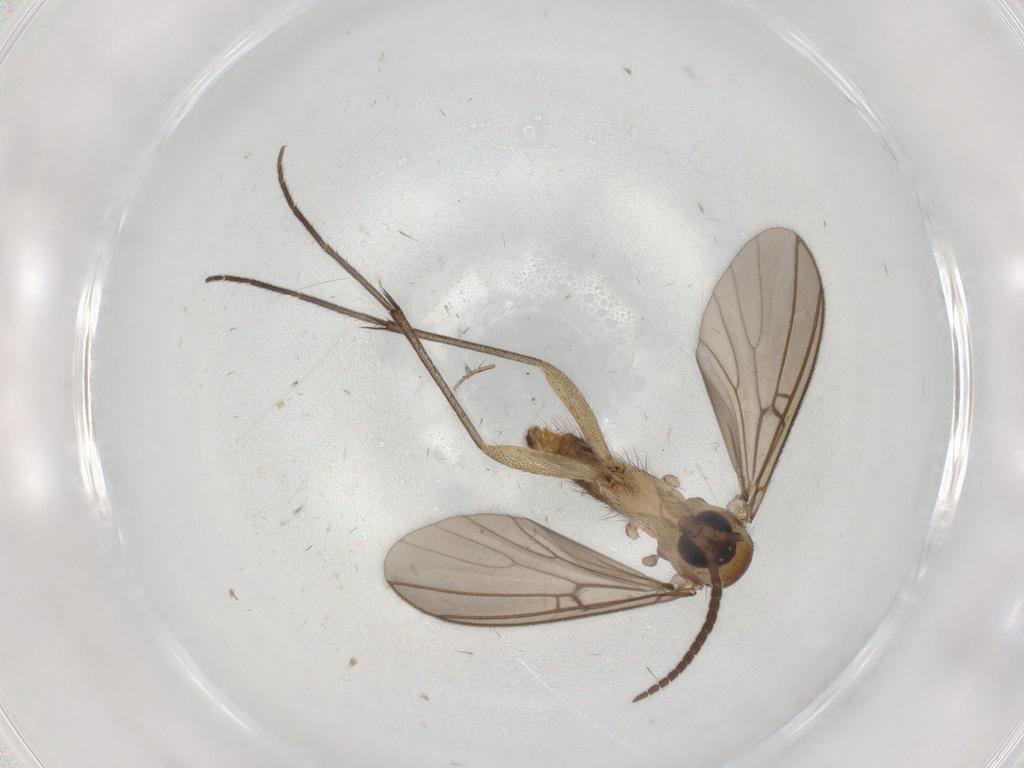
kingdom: Animalia
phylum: Arthropoda
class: Insecta
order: Diptera
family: Mycetophilidae
